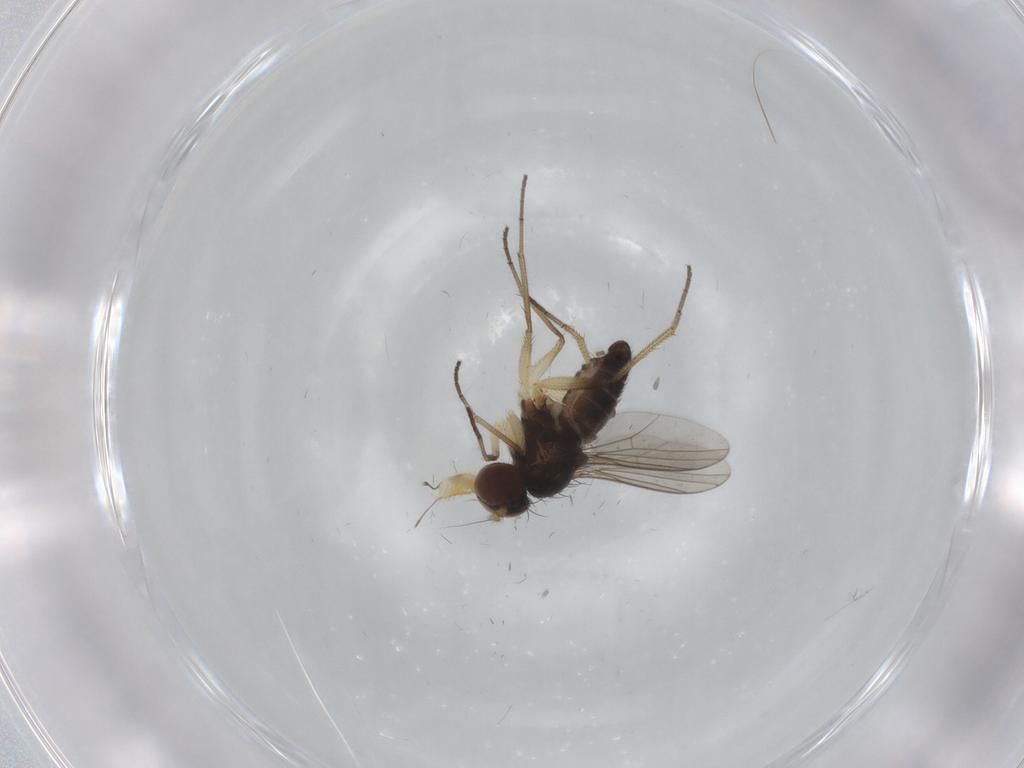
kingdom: Animalia
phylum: Arthropoda
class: Insecta
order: Diptera
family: Dolichopodidae
